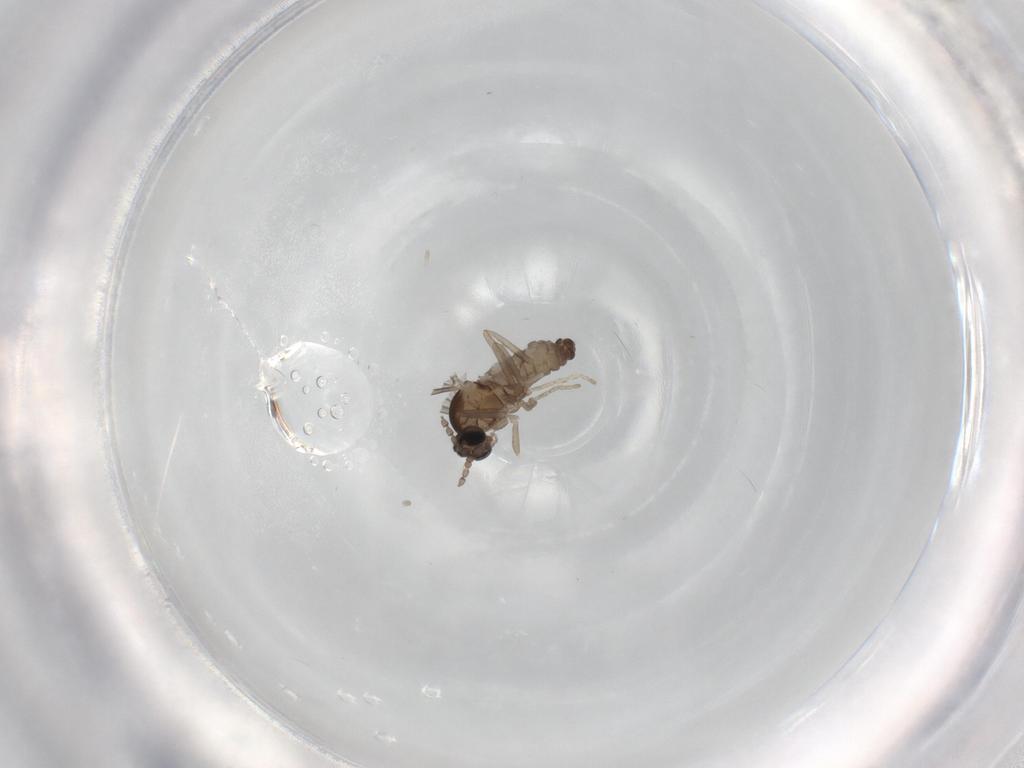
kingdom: Animalia
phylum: Arthropoda
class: Insecta
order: Diptera
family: Cecidomyiidae
